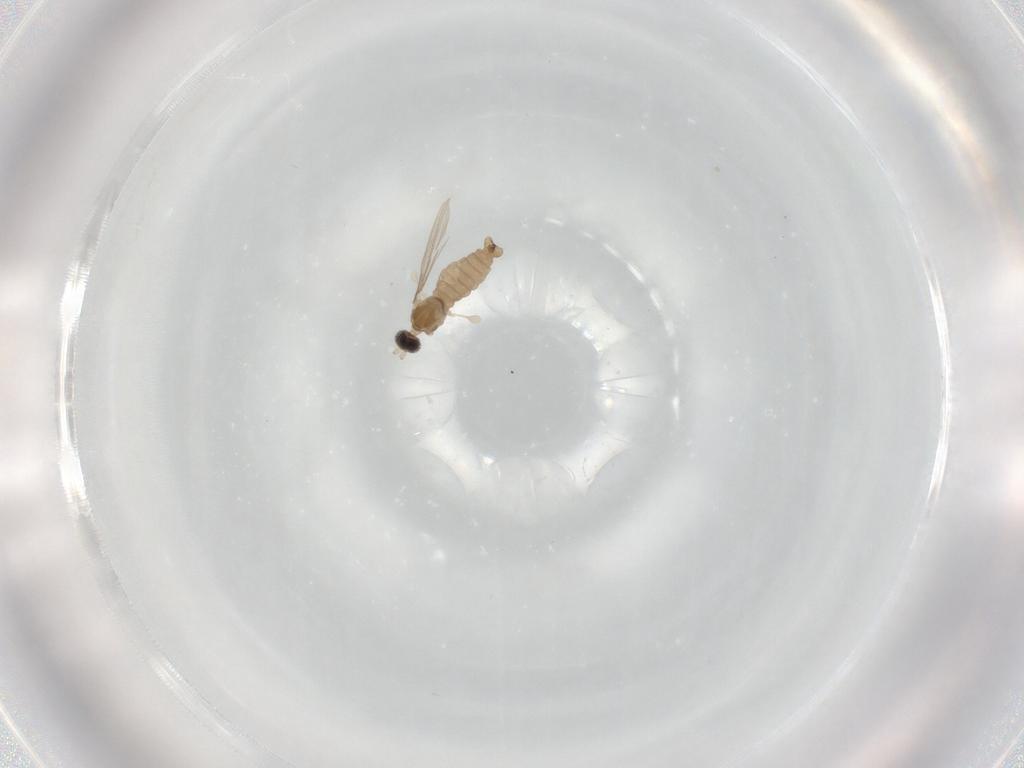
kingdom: Animalia
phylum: Arthropoda
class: Insecta
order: Diptera
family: Cecidomyiidae
